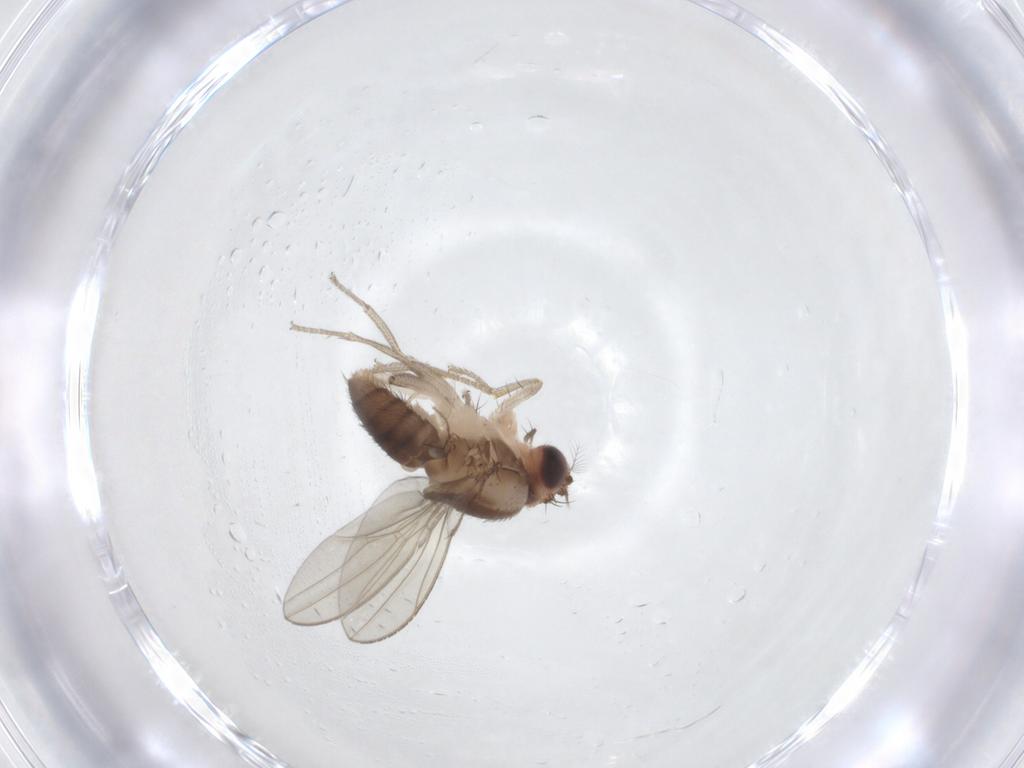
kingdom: Animalia
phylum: Arthropoda
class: Insecta
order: Diptera
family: Drosophilidae
